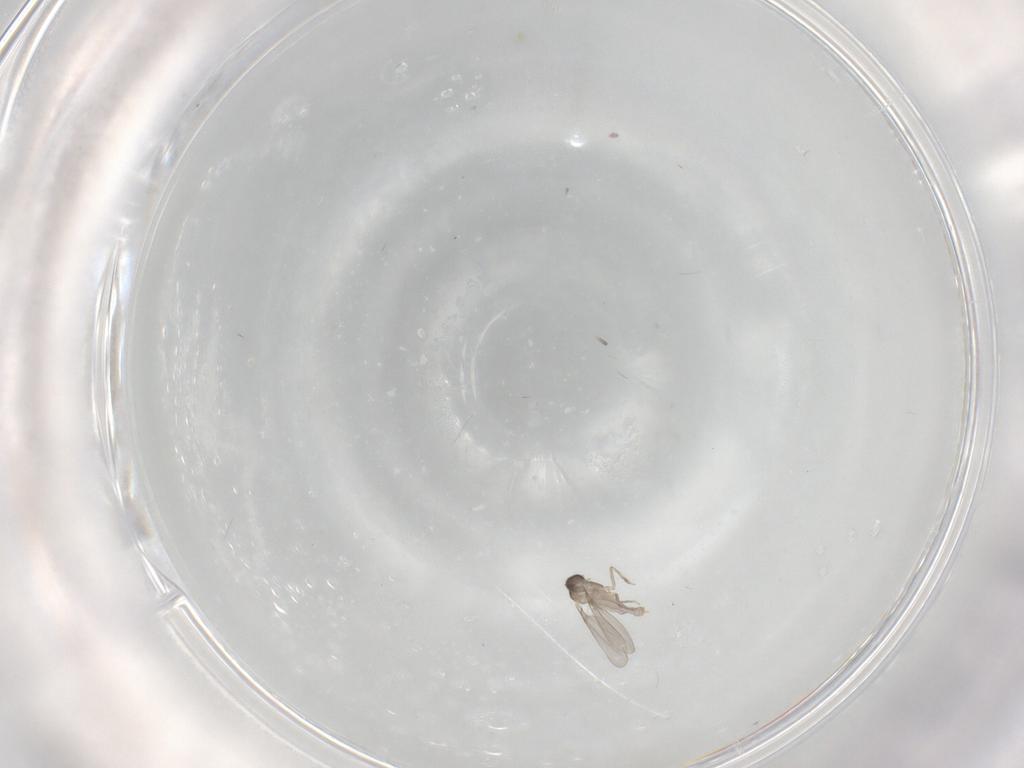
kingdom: Animalia
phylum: Arthropoda
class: Insecta
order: Diptera
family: Cecidomyiidae
